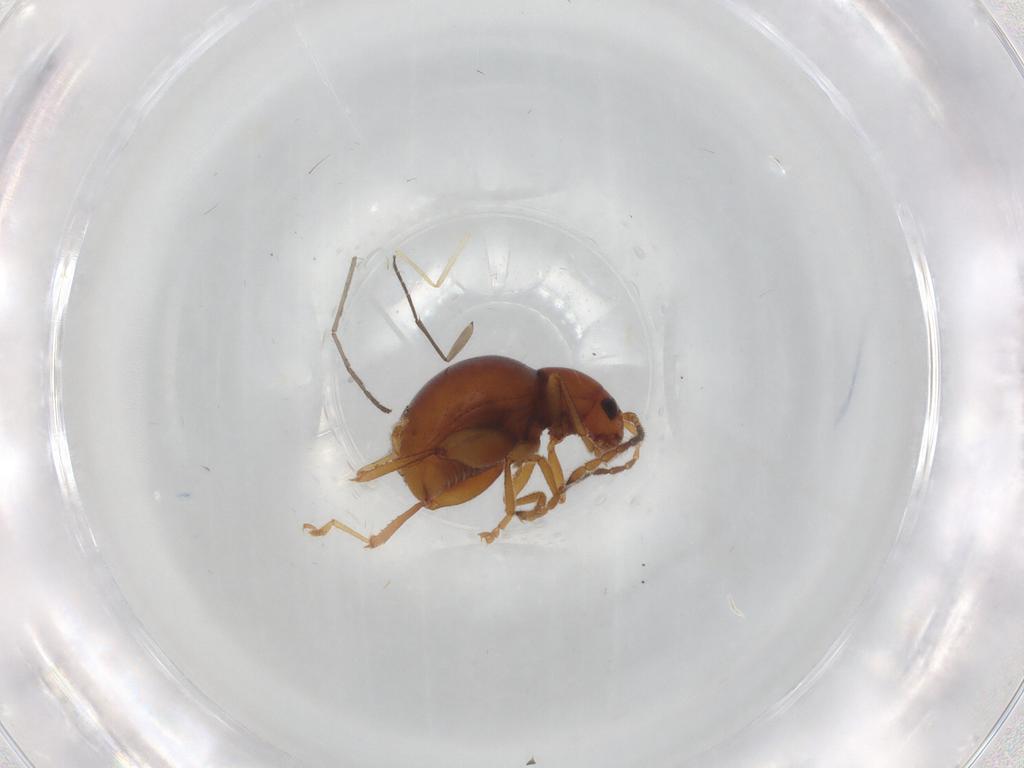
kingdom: Animalia
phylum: Arthropoda
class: Insecta
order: Coleoptera
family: Chrysomelidae
